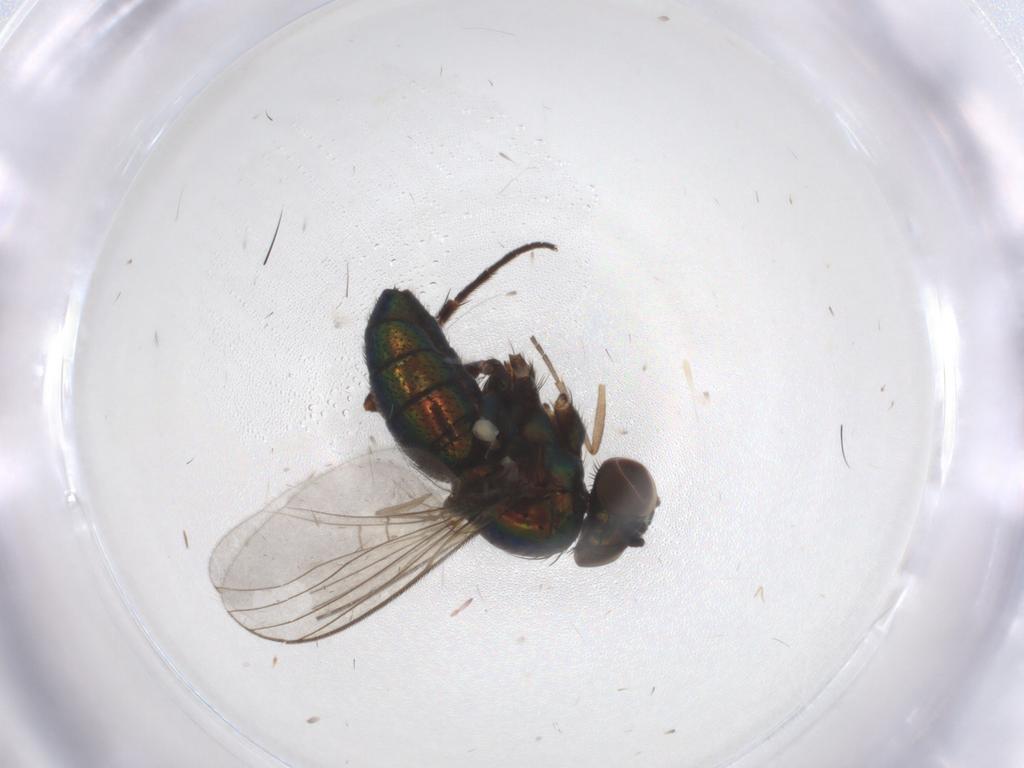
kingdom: Animalia
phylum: Arthropoda
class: Insecta
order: Diptera
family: Dolichopodidae
